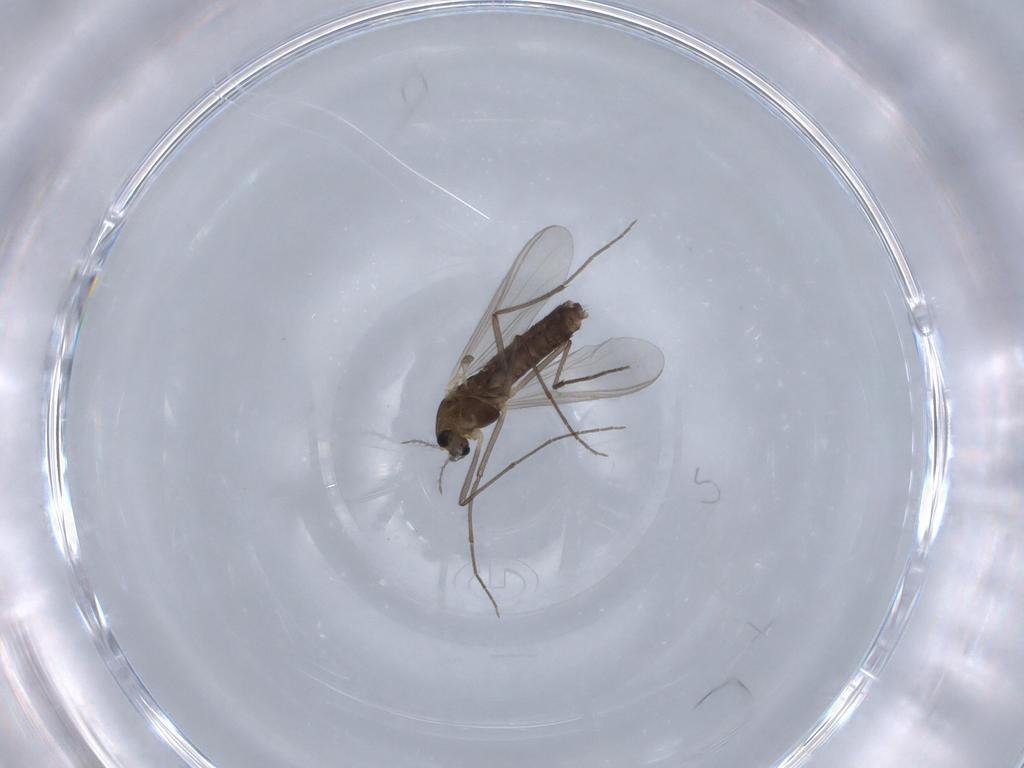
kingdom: Animalia
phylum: Arthropoda
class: Insecta
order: Diptera
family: Chironomidae
